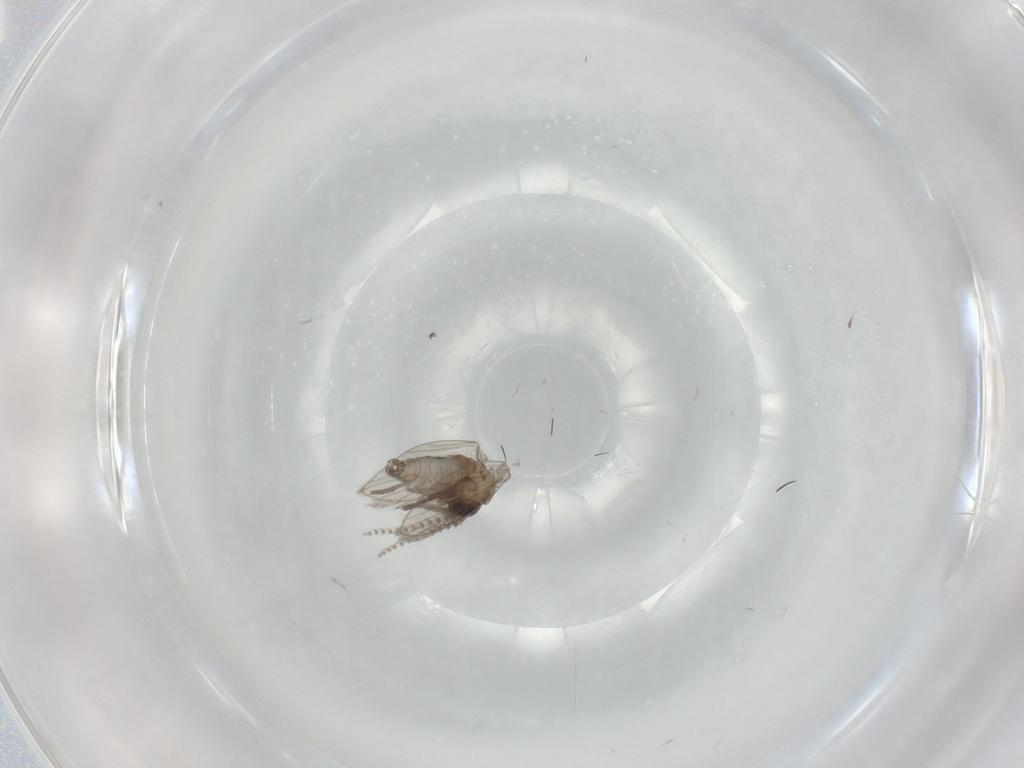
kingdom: Animalia
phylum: Arthropoda
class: Insecta
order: Diptera
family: Psychodidae
